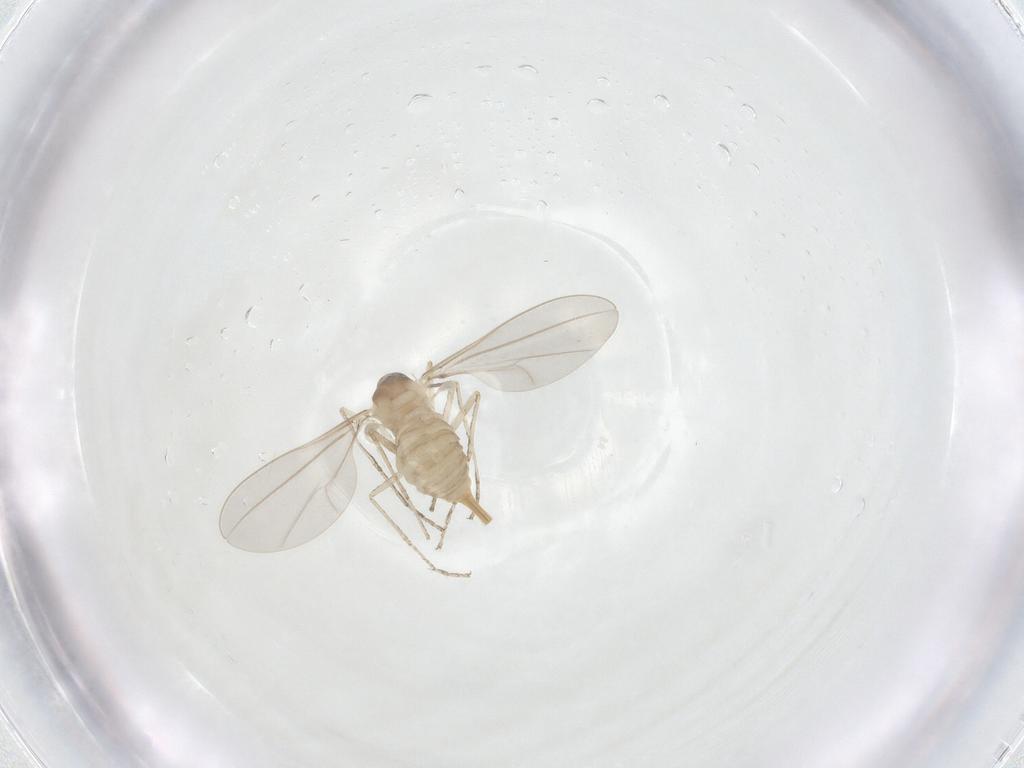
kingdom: Animalia
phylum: Arthropoda
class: Insecta
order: Diptera
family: Cecidomyiidae
